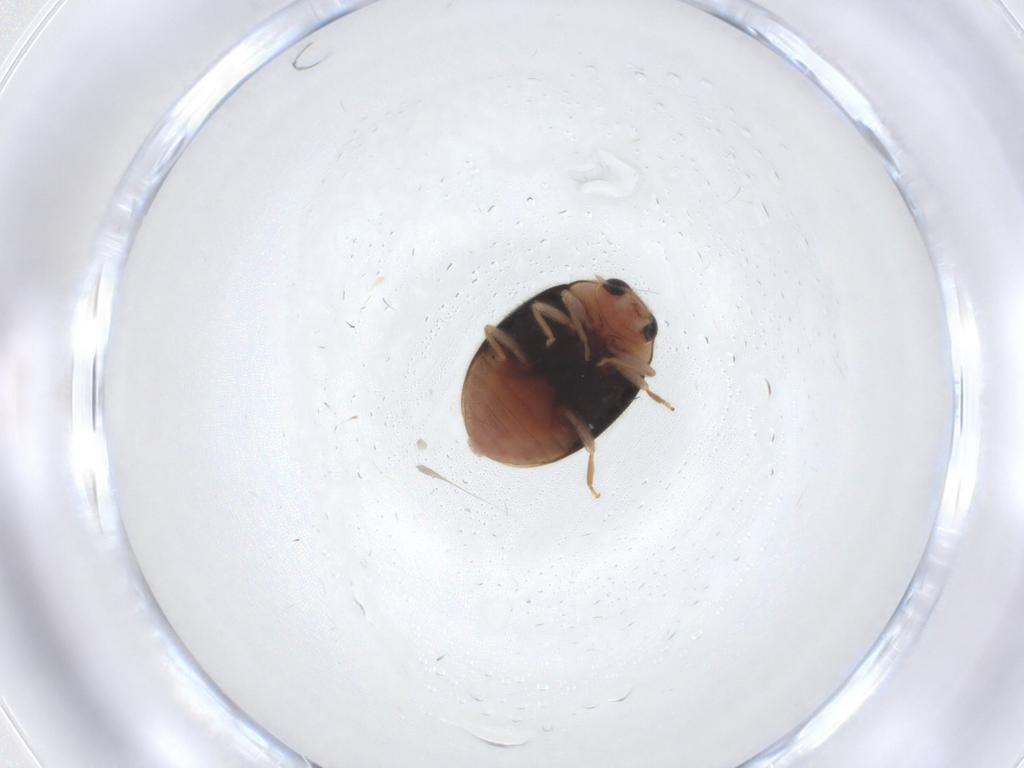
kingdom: Animalia
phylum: Arthropoda
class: Insecta
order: Coleoptera
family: Coccinellidae
